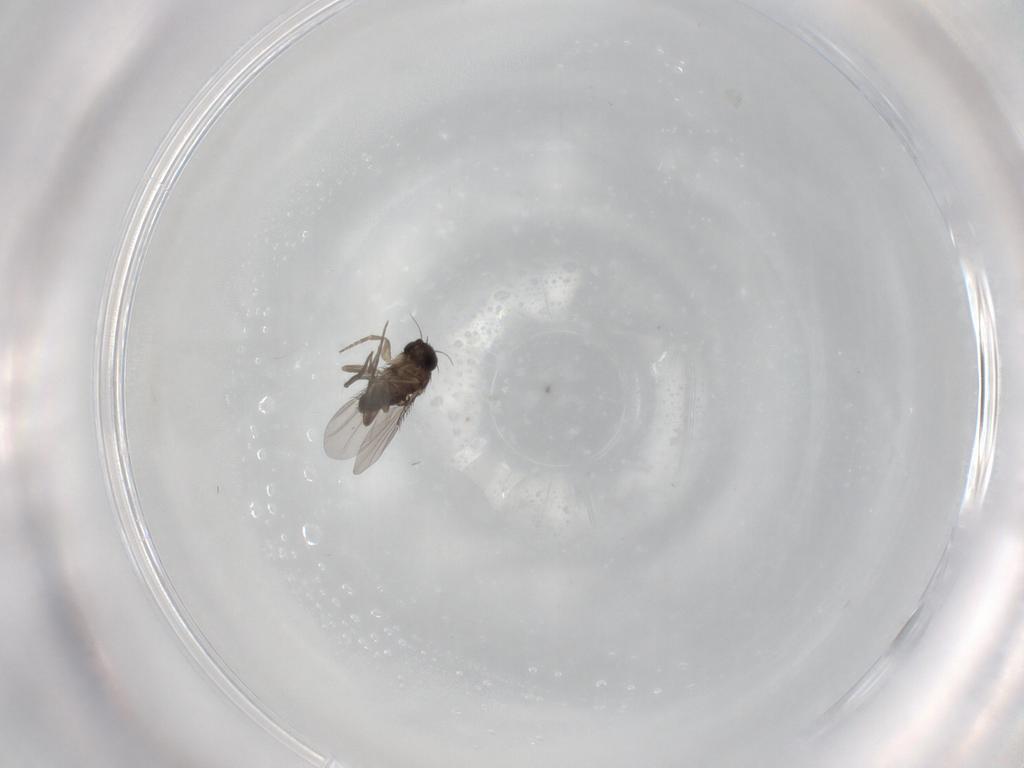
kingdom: Animalia
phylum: Arthropoda
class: Insecta
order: Diptera
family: Phoridae
